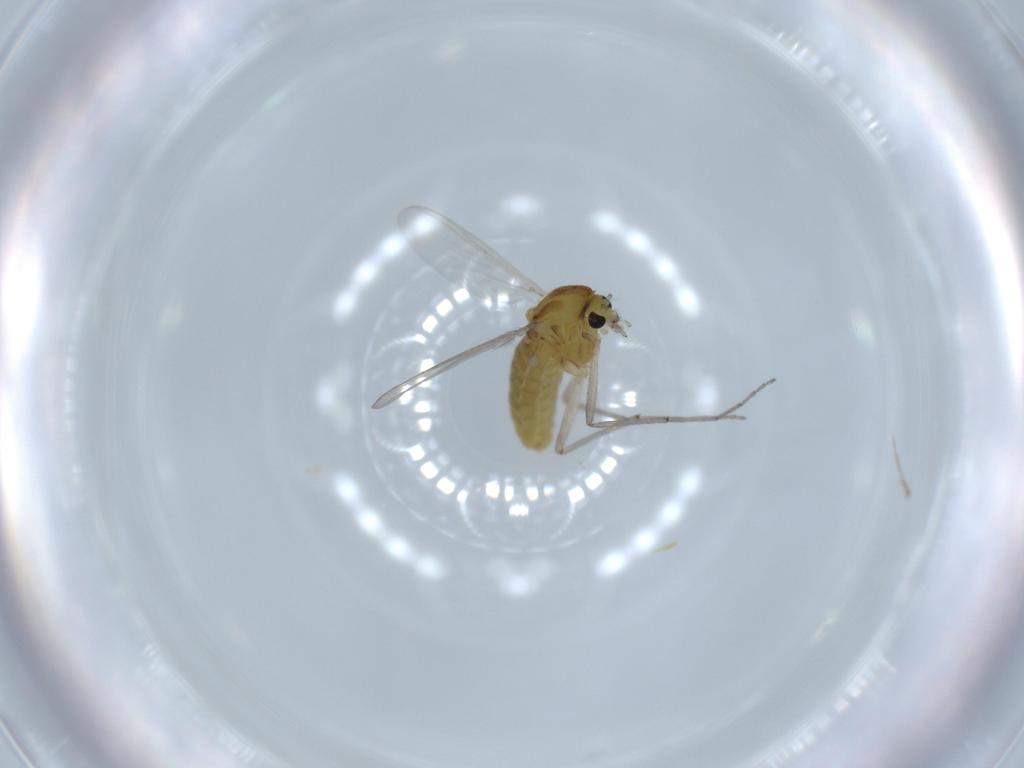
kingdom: Animalia
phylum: Arthropoda
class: Insecta
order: Diptera
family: Chironomidae
